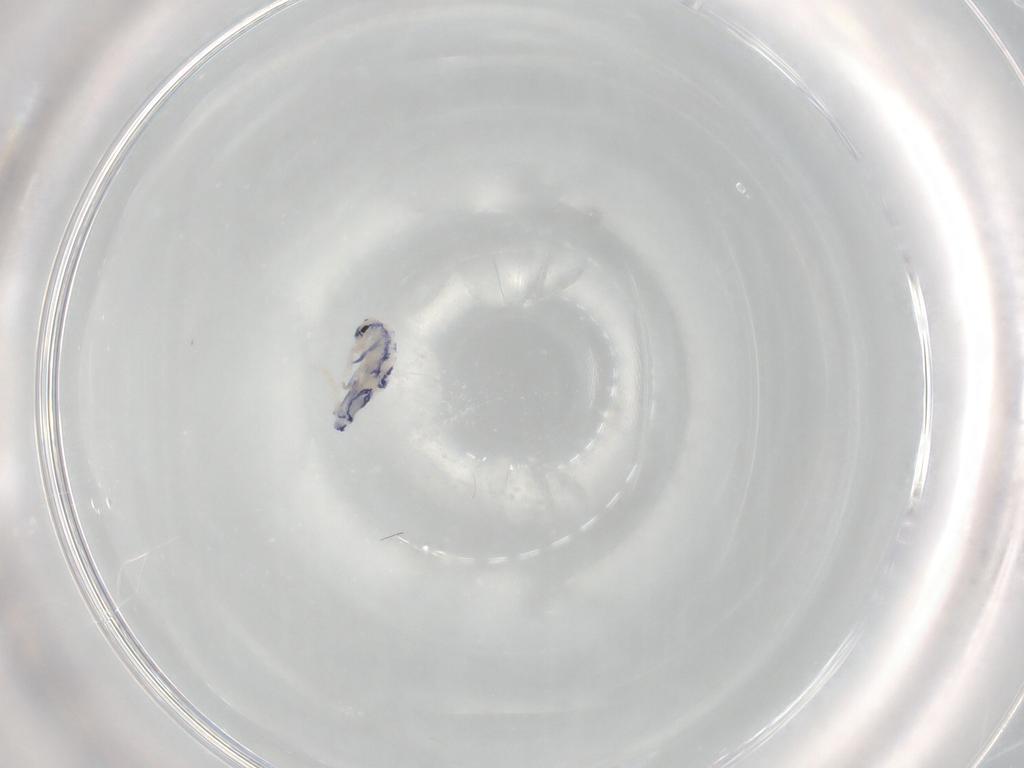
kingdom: Animalia
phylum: Arthropoda
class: Collembola
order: Entomobryomorpha
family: Entomobryidae
